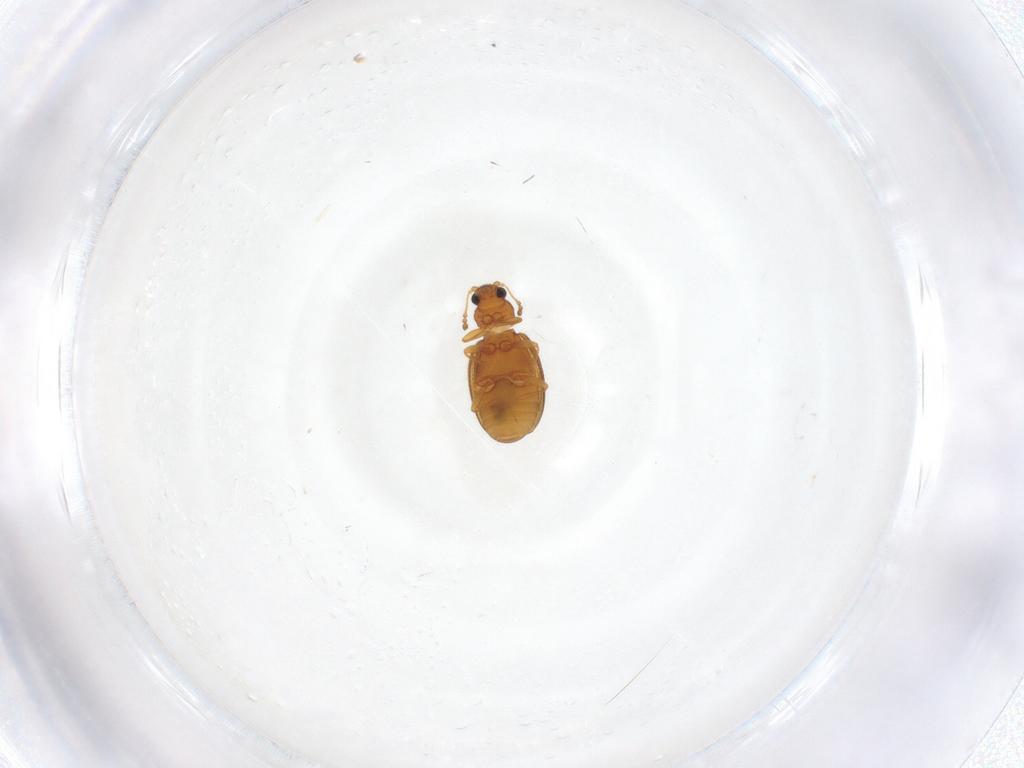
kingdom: Animalia
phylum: Arthropoda
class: Insecta
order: Coleoptera
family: Latridiidae
